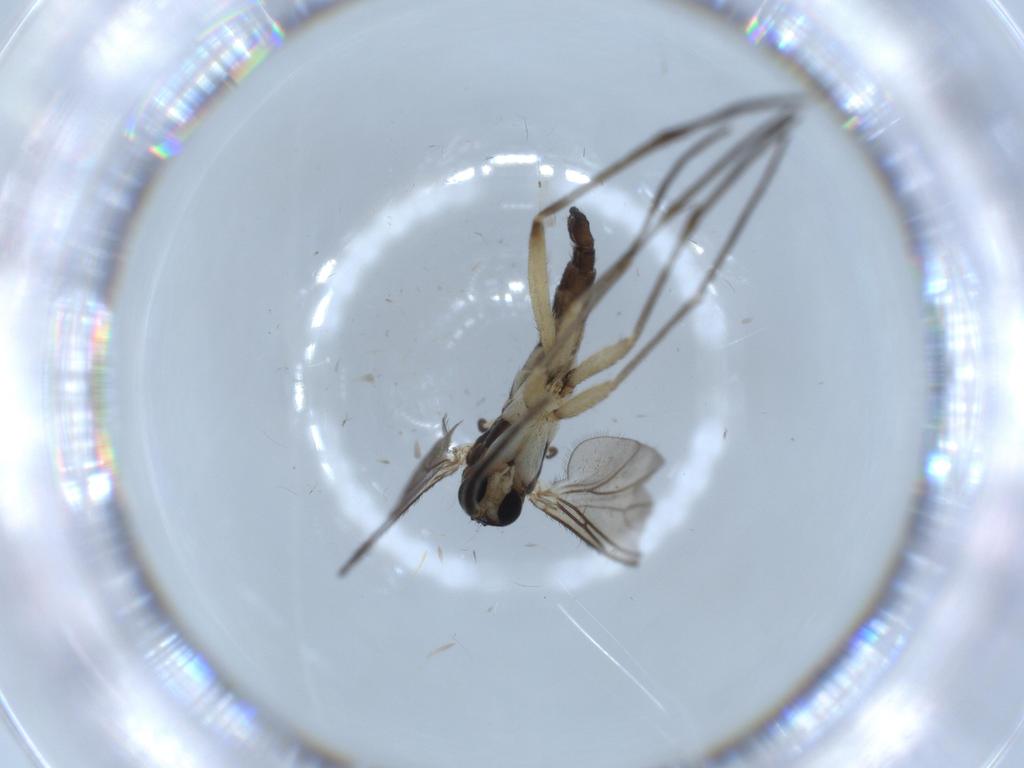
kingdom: Animalia
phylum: Arthropoda
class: Insecta
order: Diptera
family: Sciaridae
